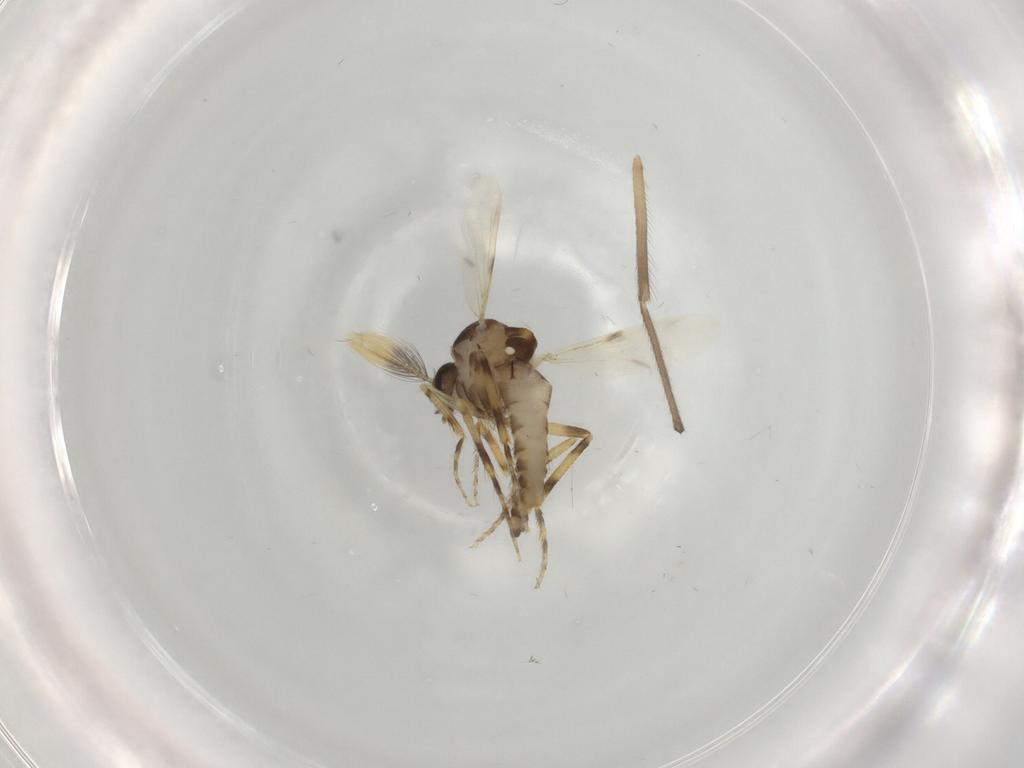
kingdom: Animalia
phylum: Arthropoda
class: Insecta
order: Diptera
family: Ceratopogonidae
